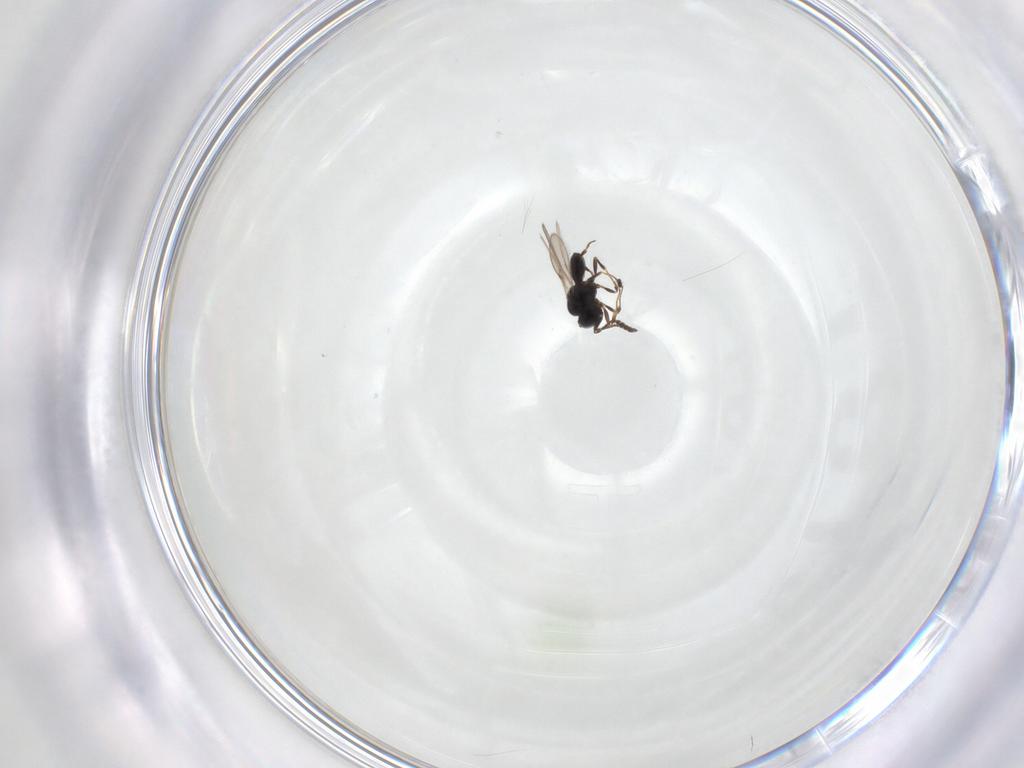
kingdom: Animalia
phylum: Arthropoda
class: Insecta
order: Hymenoptera
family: Scelionidae
